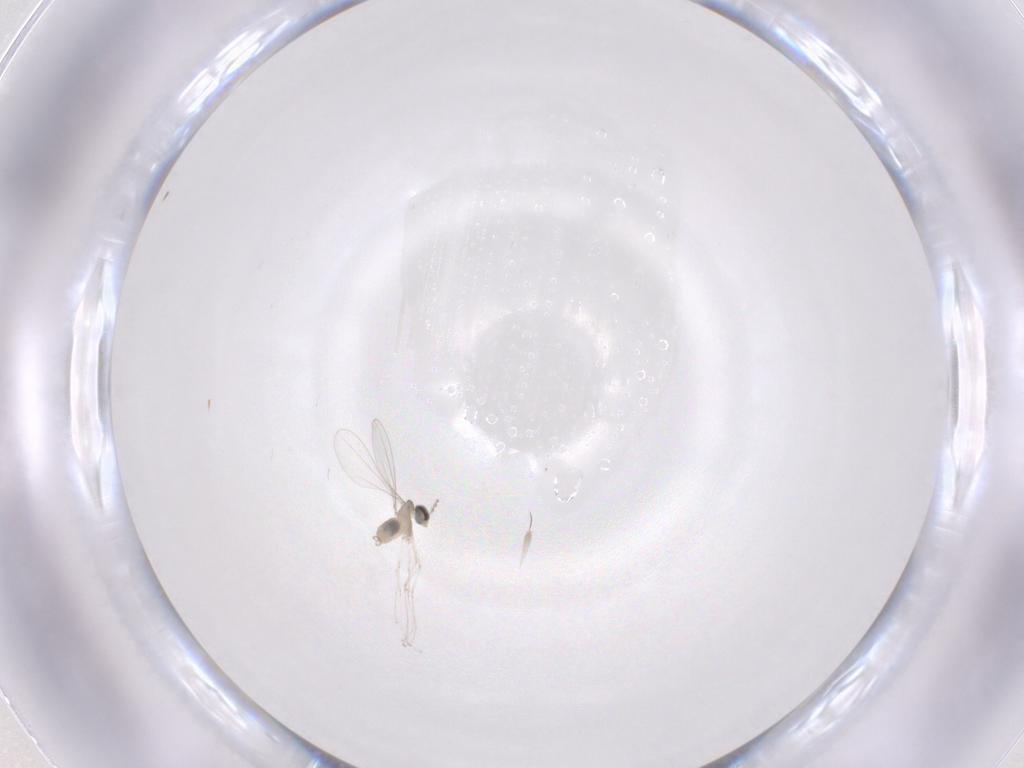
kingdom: Animalia
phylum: Arthropoda
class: Insecta
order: Diptera
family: Cecidomyiidae
